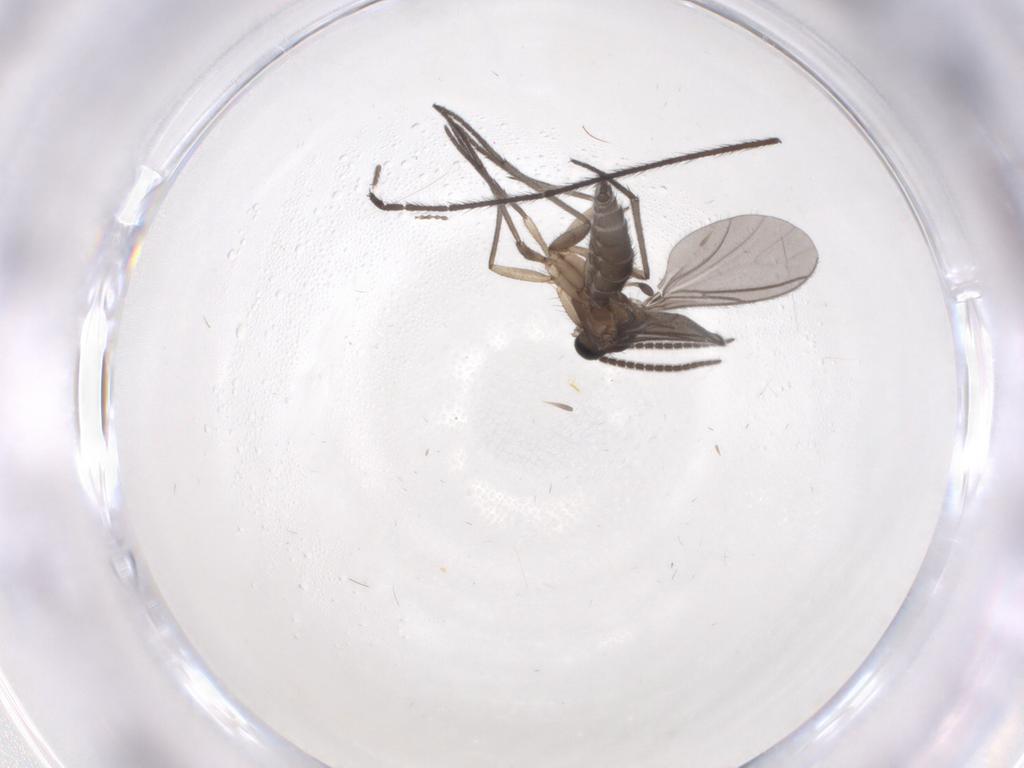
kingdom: Animalia
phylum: Arthropoda
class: Insecta
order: Diptera
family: Sciaridae
